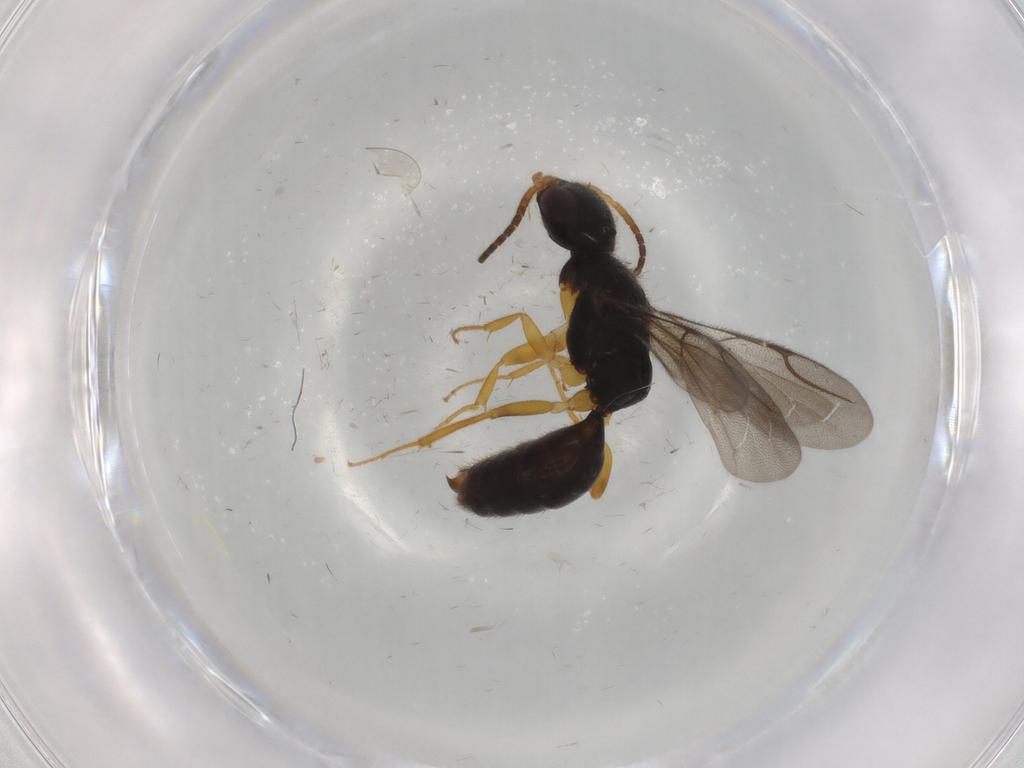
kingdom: Animalia
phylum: Arthropoda
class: Insecta
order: Hymenoptera
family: Bethylidae
